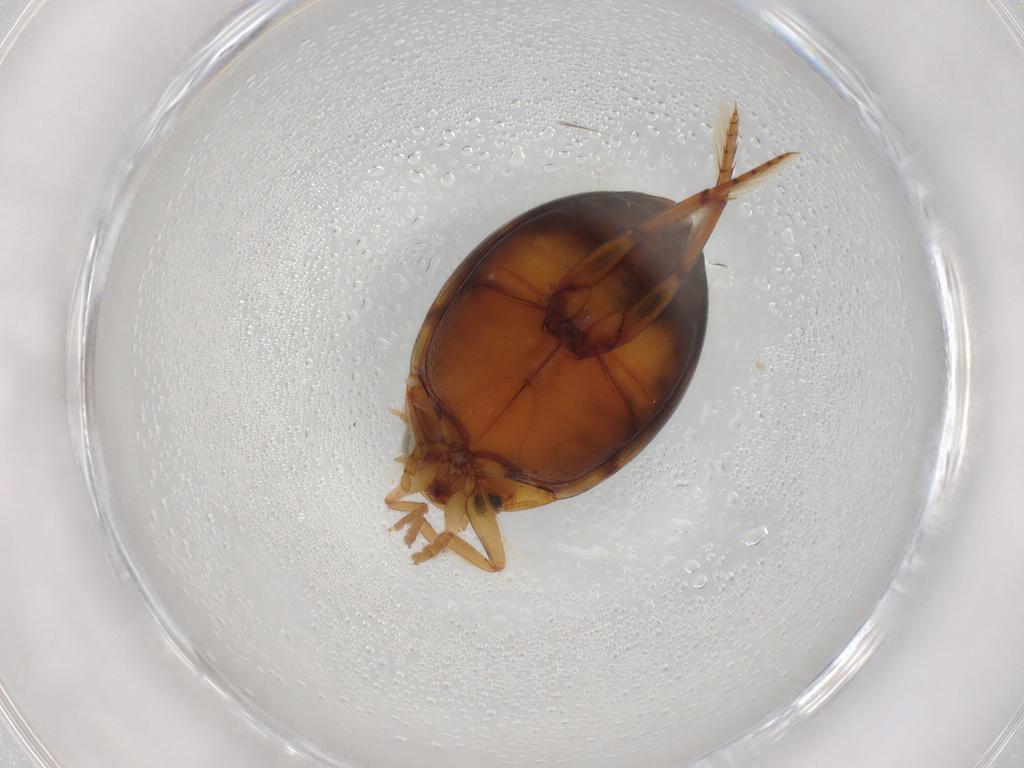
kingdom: Animalia
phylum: Arthropoda
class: Insecta
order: Coleoptera
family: Dytiscidae
